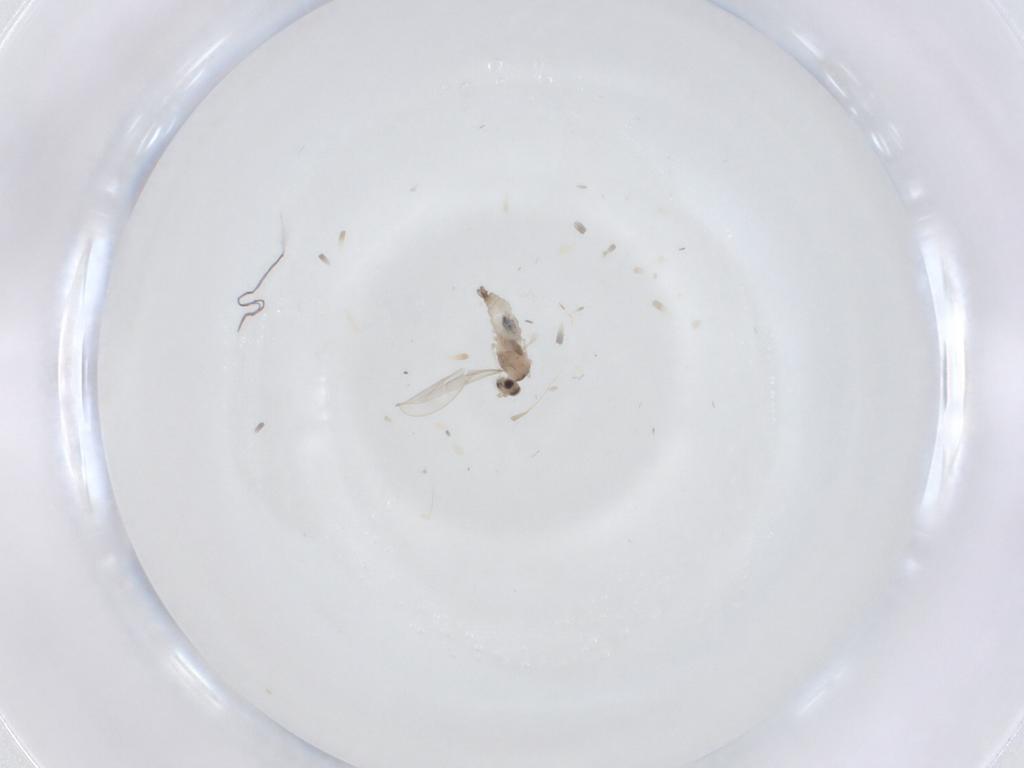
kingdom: Animalia
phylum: Arthropoda
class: Insecta
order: Diptera
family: Cecidomyiidae
